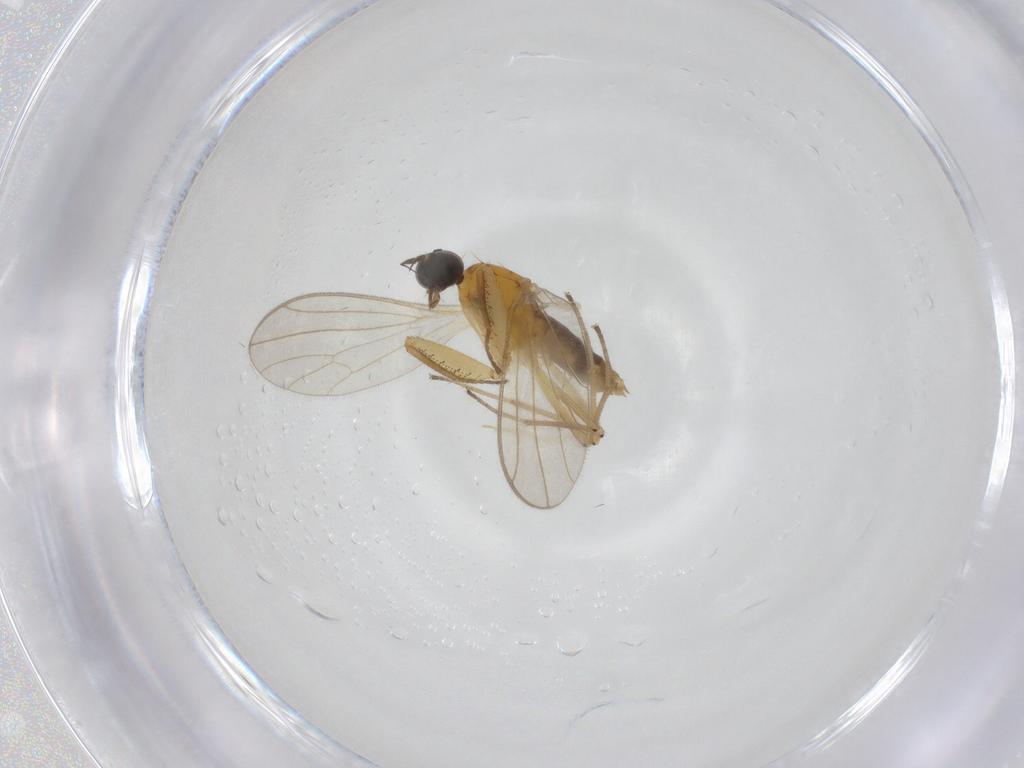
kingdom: Animalia
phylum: Arthropoda
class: Insecta
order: Diptera
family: Empididae
